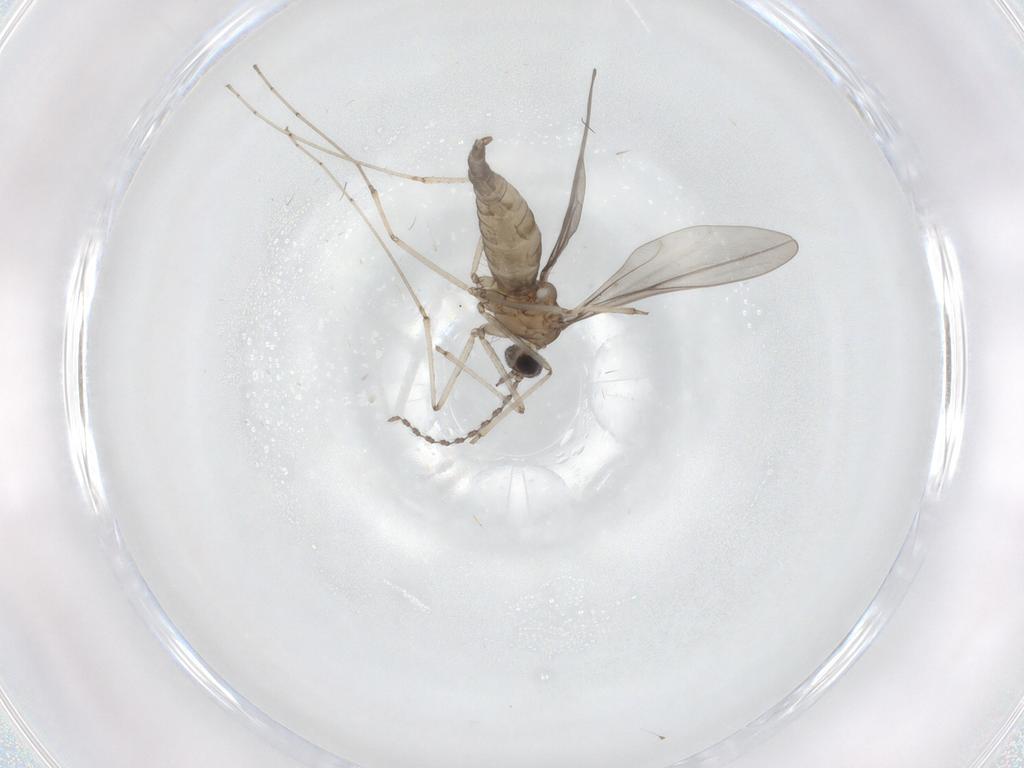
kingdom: Animalia
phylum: Arthropoda
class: Insecta
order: Diptera
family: Cecidomyiidae
